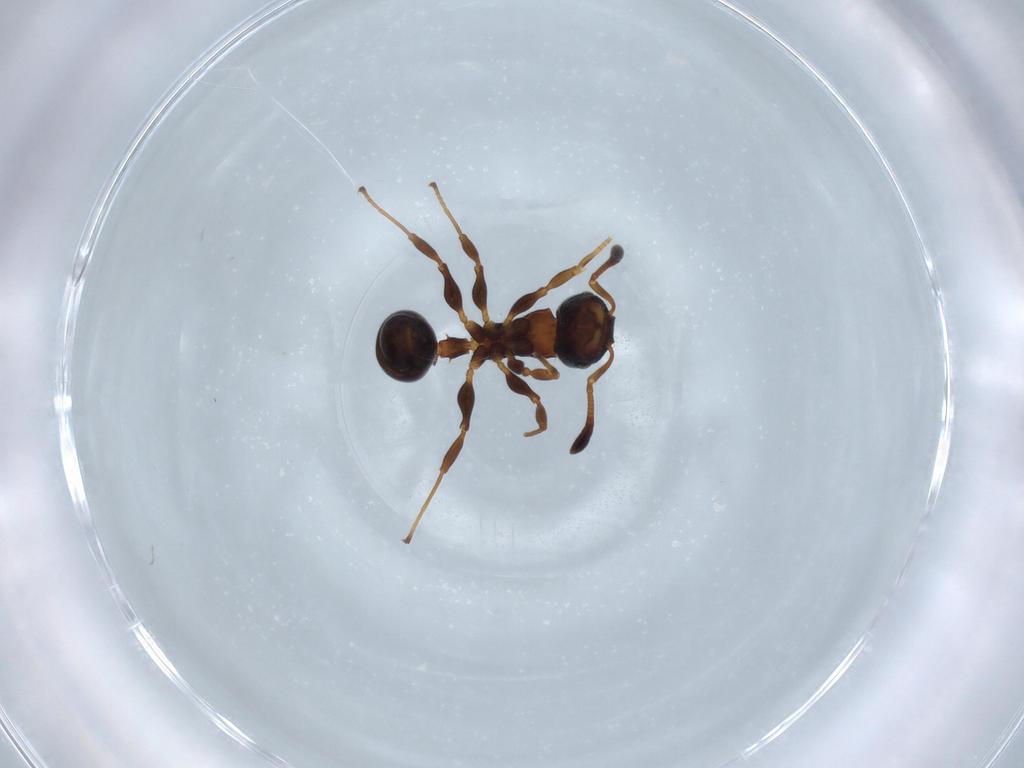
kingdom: Animalia
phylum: Arthropoda
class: Insecta
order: Hymenoptera
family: Formicidae
